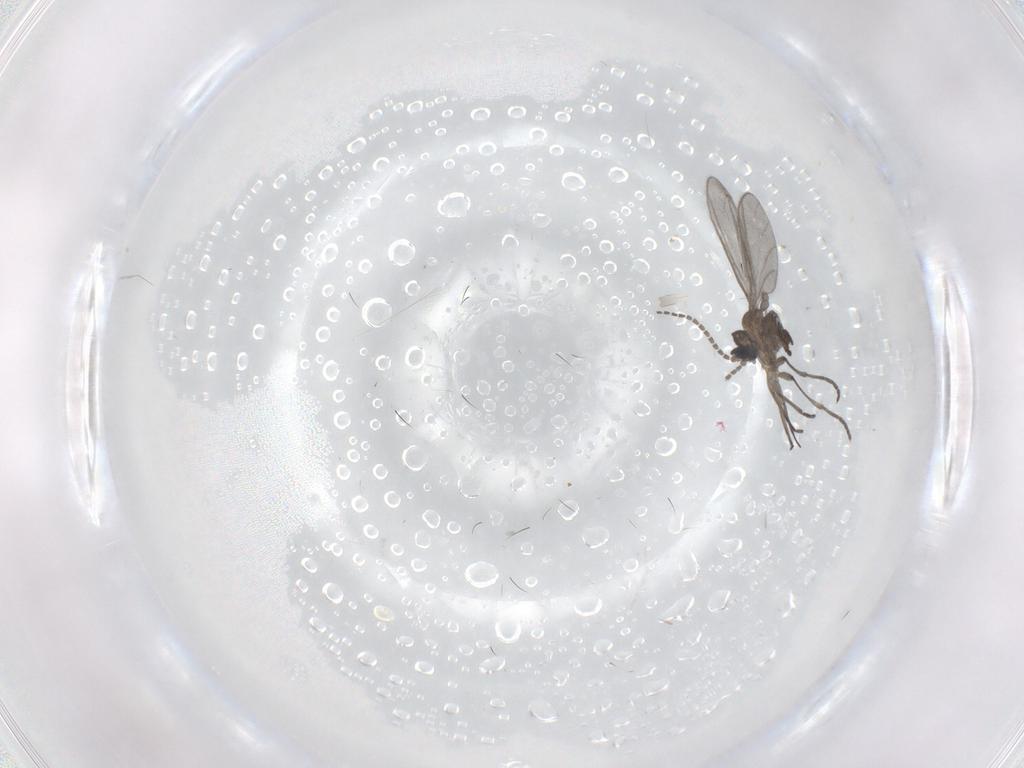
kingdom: Animalia
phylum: Arthropoda
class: Insecta
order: Diptera
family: Sciaridae
